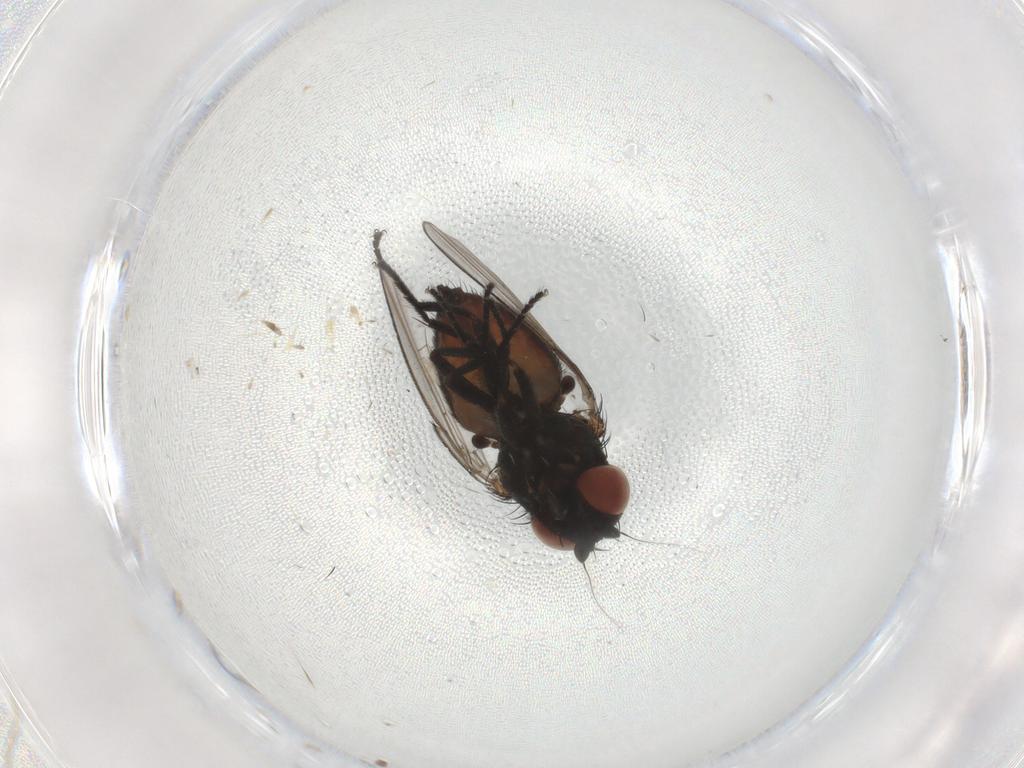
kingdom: Animalia
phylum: Arthropoda
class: Insecta
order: Diptera
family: Milichiidae
